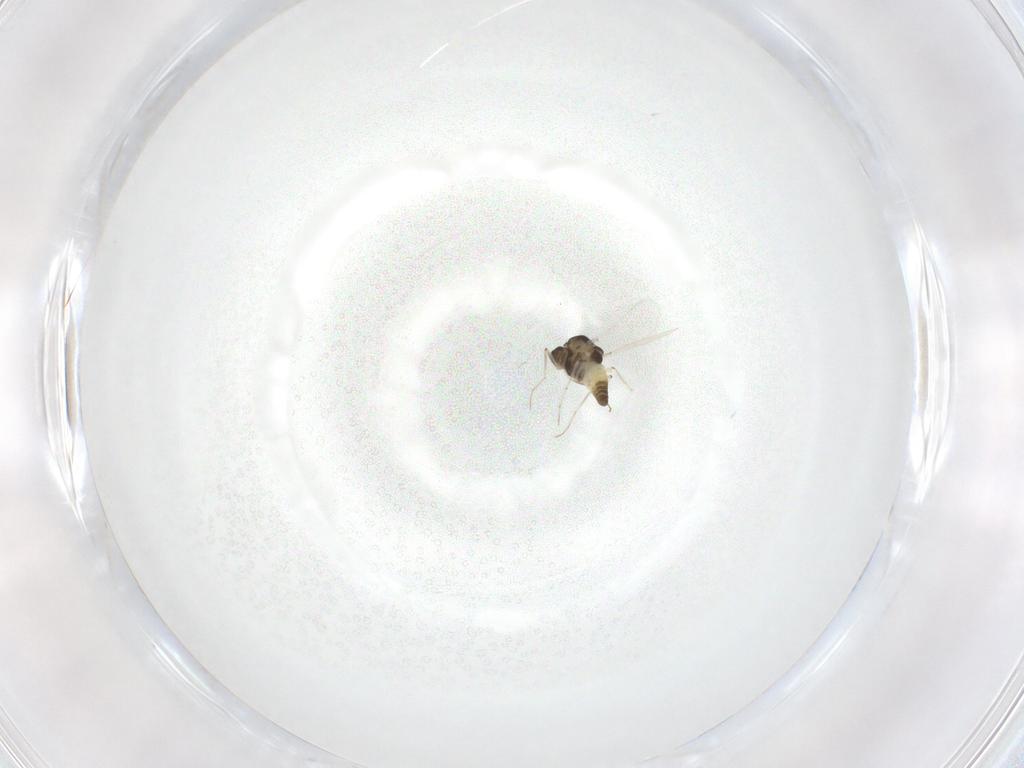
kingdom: Animalia
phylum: Arthropoda
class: Insecta
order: Diptera
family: Chironomidae
